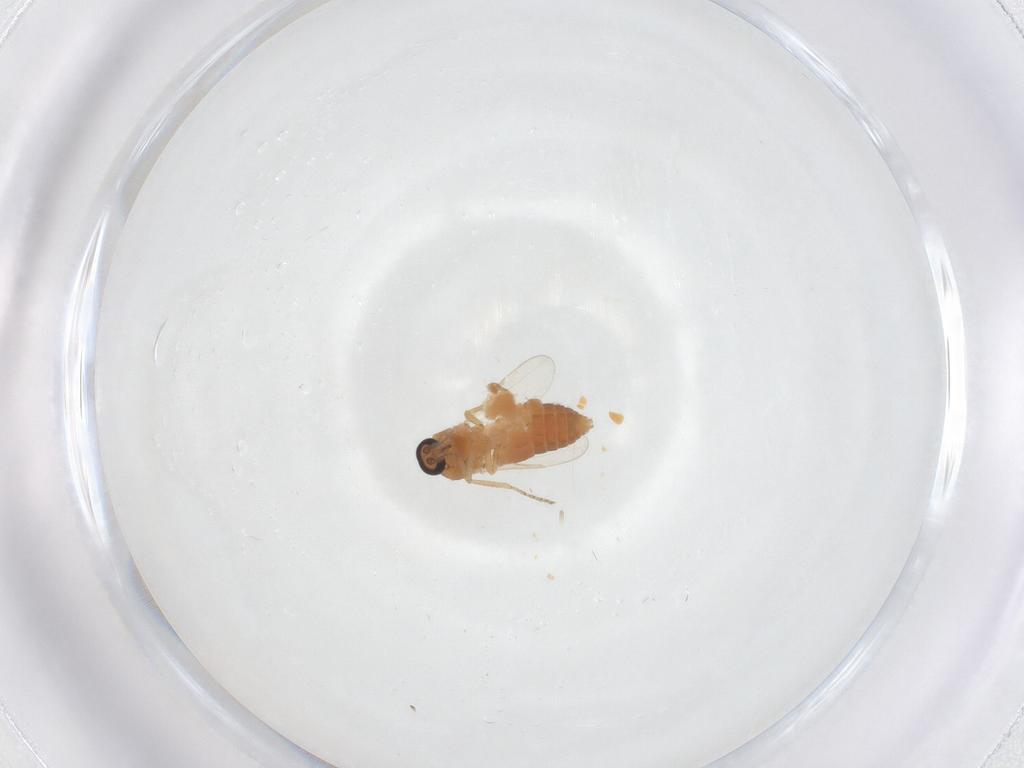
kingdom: Animalia
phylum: Arthropoda
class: Insecta
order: Diptera
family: Ceratopogonidae
